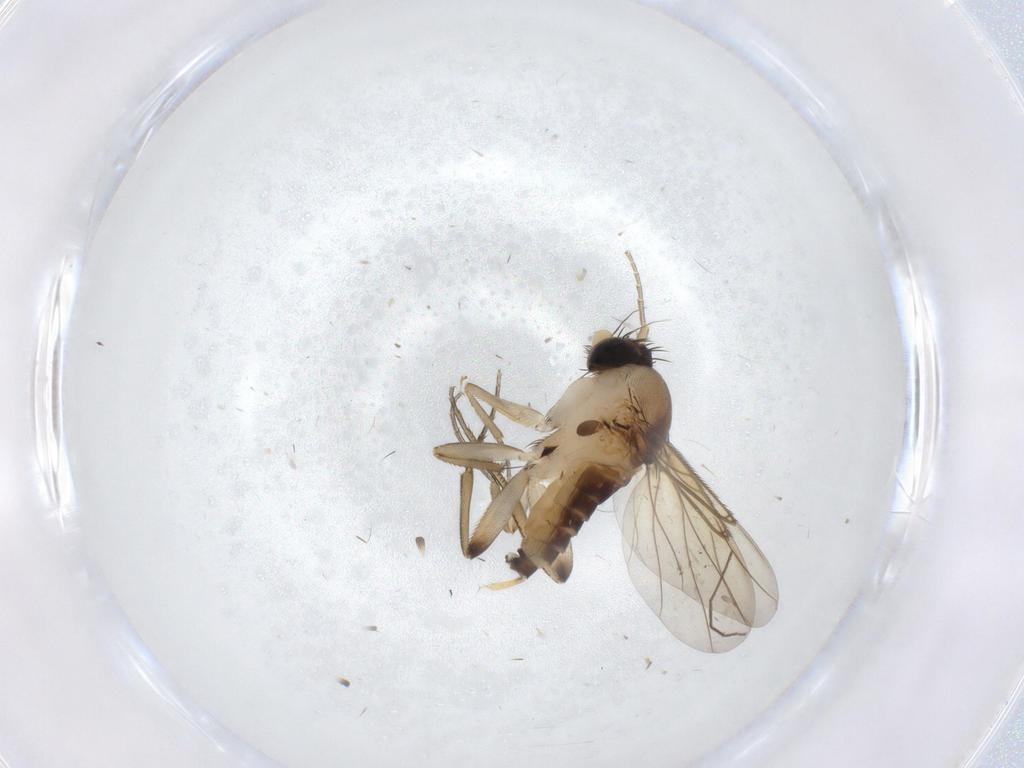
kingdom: Animalia
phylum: Arthropoda
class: Insecta
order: Diptera
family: Phoridae
